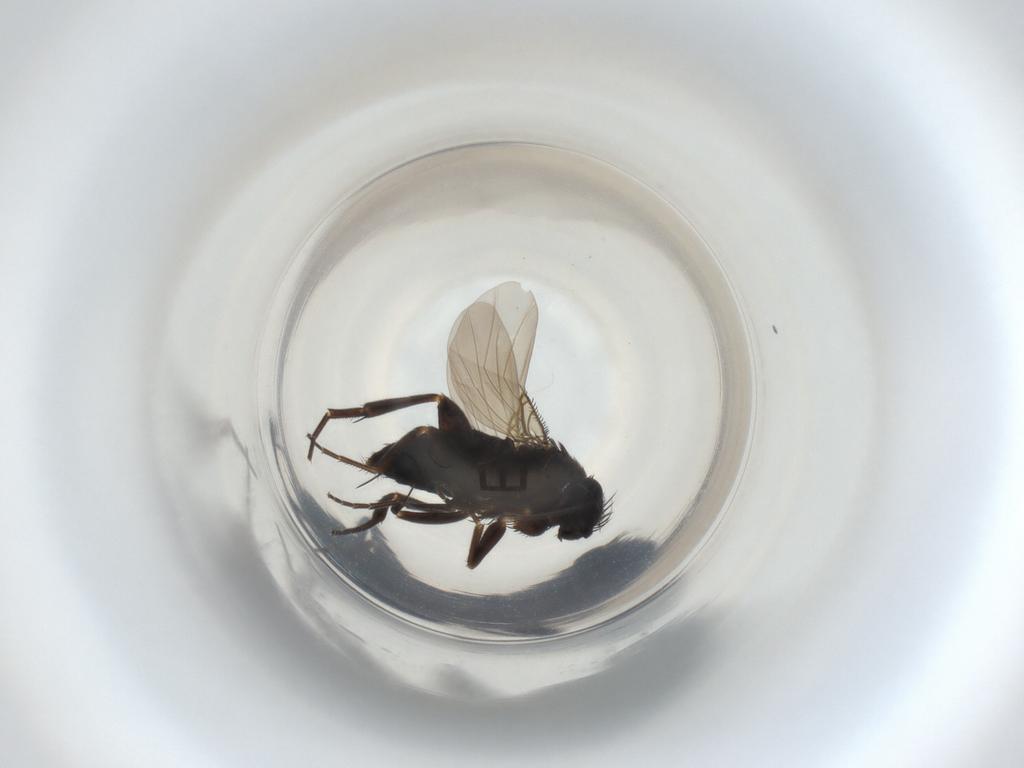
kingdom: Animalia
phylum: Arthropoda
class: Insecta
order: Diptera
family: Phoridae
